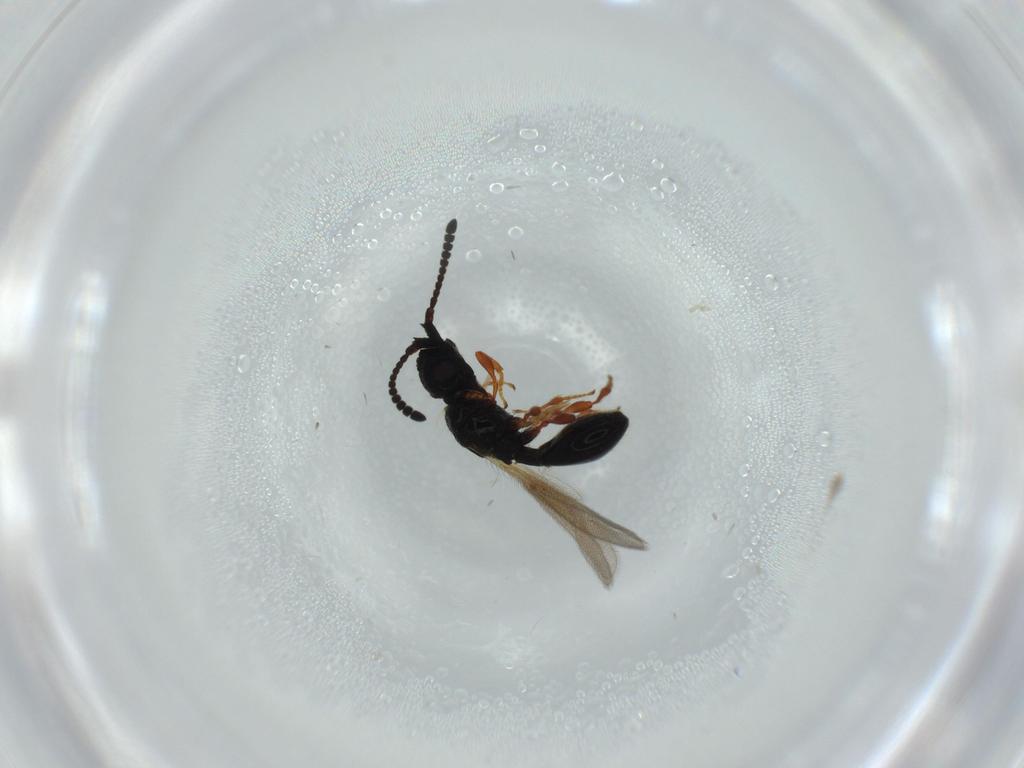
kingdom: Animalia
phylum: Arthropoda
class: Insecta
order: Hymenoptera
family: Diapriidae
